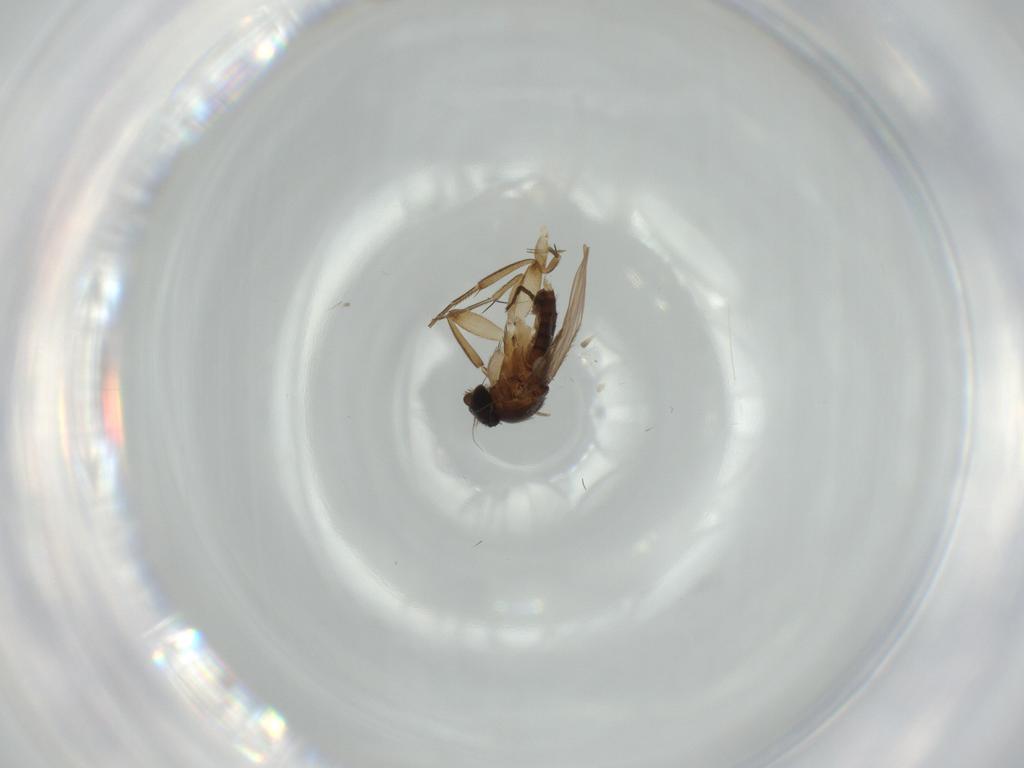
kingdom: Animalia
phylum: Arthropoda
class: Insecta
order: Diptera
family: Phoridae
